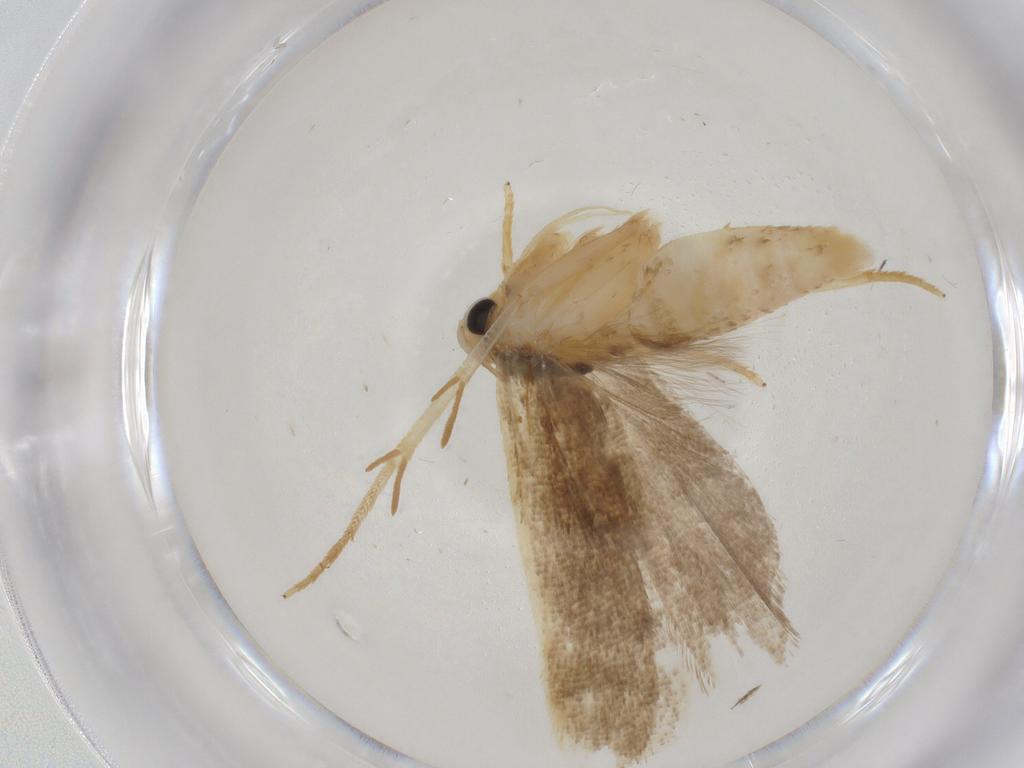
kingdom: Animalia
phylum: Arthropoda
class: Insecta
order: Lepidoptera
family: Gelechiidae
